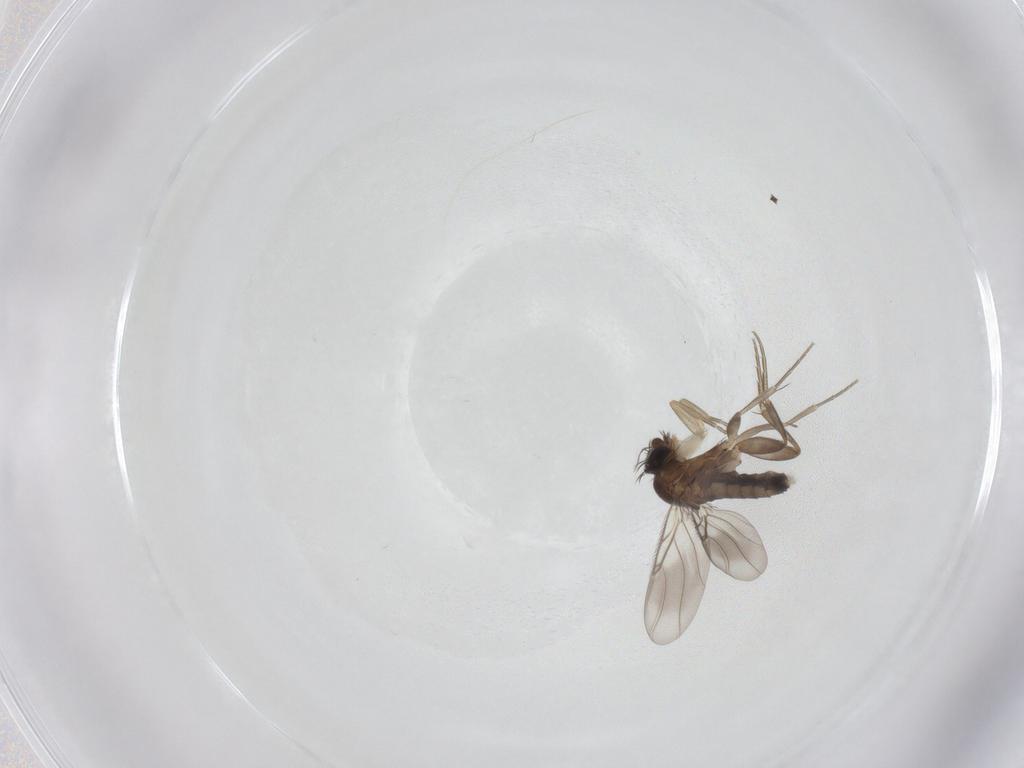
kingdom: Animalia
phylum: Arthropoda
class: Insecta
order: Diptera
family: Phoridae
